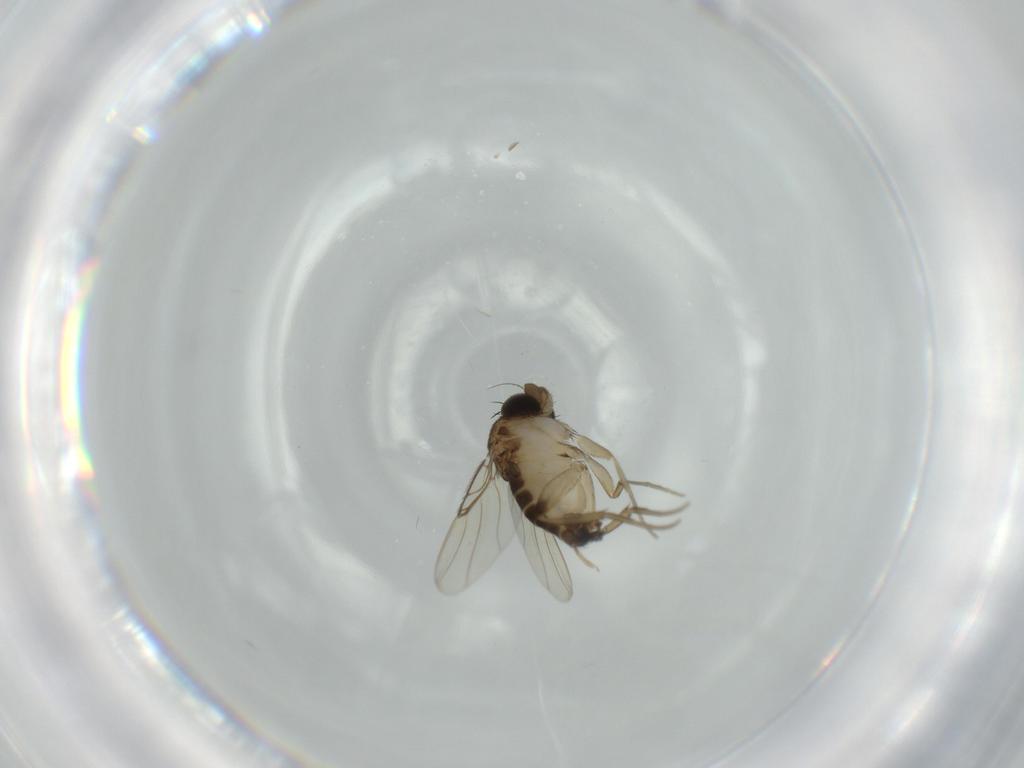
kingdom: Animalia
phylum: Arthropoda
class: Insecta
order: Diptera
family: Phoridae
